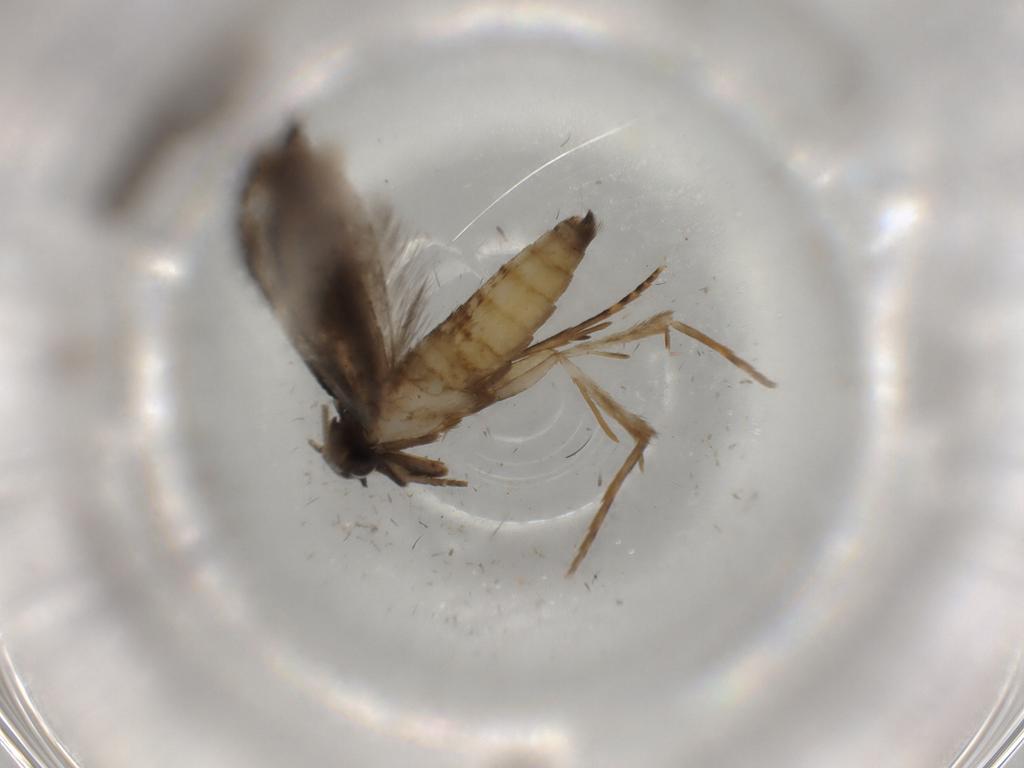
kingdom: Animalia
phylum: Arthropoda
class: Insecta
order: Lepidoptera
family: Tineidae
